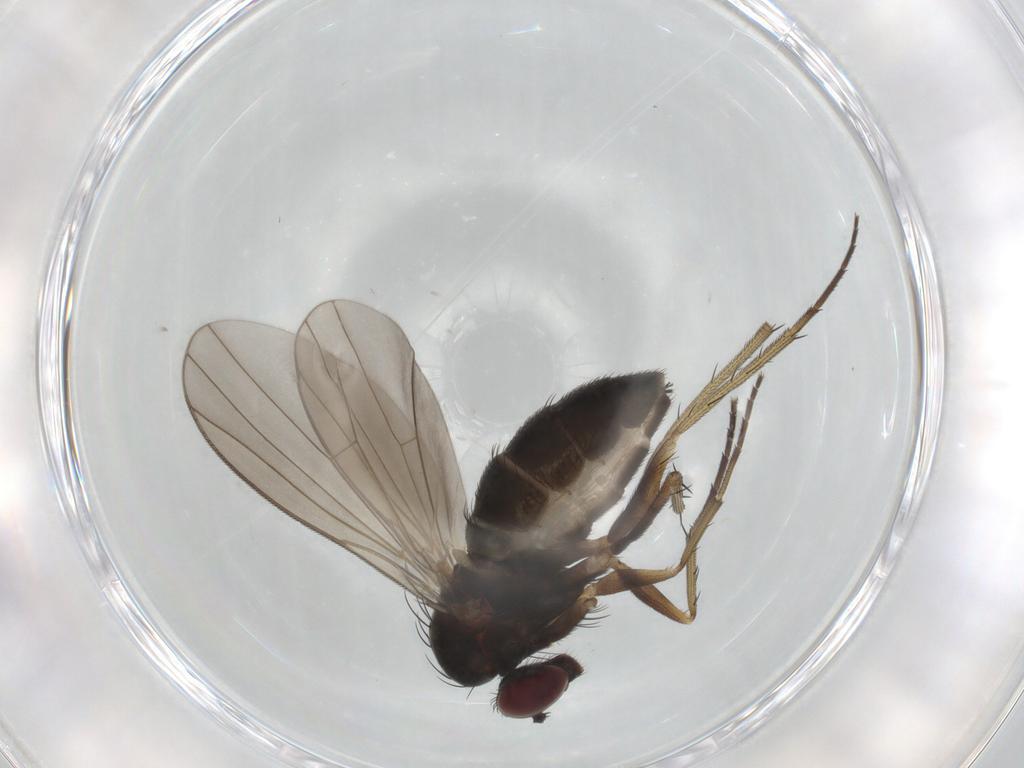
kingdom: Animalia
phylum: Arthropoda
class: Insecta
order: Diptera
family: Dolichopodidae
